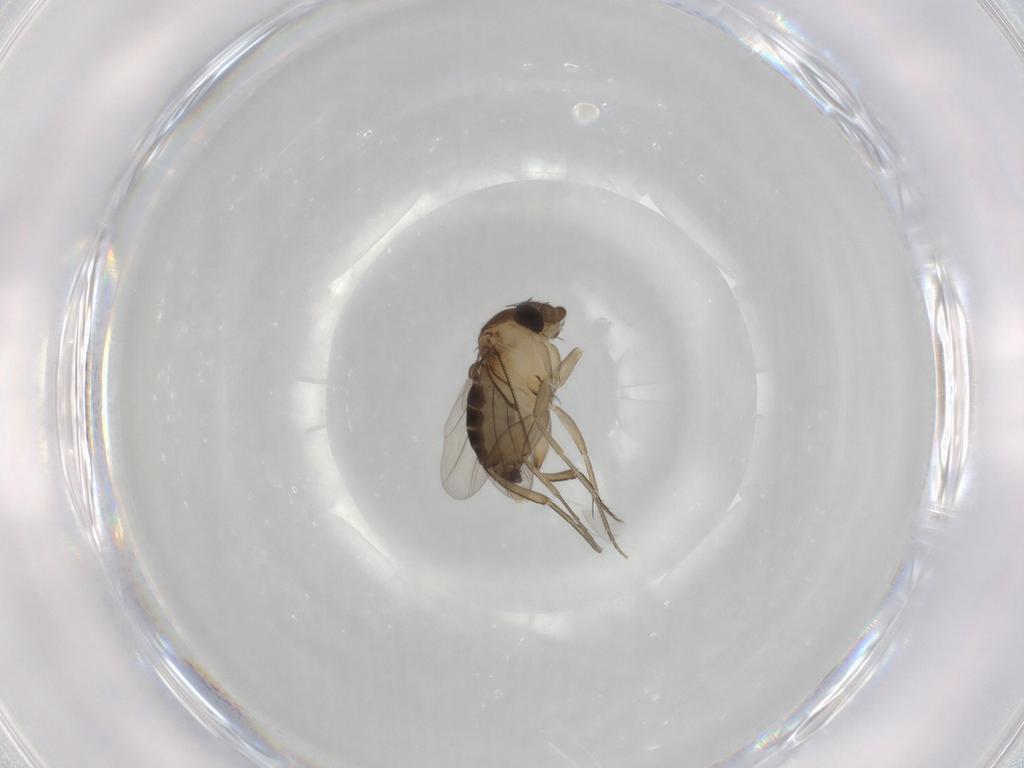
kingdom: Animalia
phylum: Arthropoda
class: Insecta
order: Diptera
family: Phoridae
